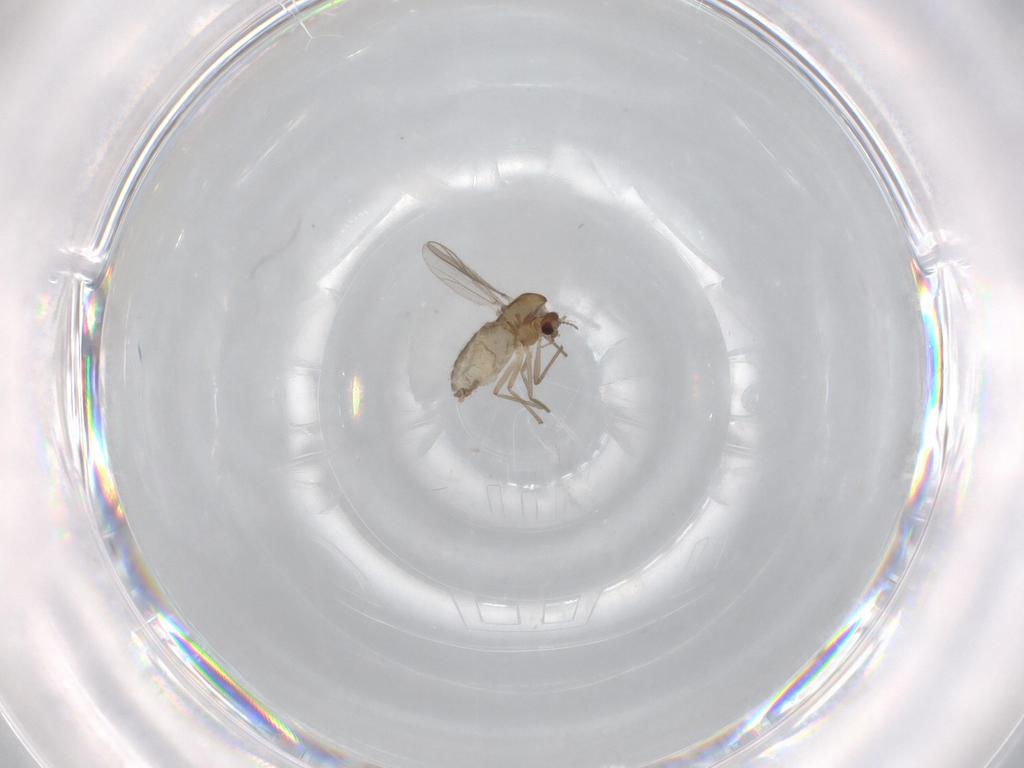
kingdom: Animalia
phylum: Arthropoda
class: Insecta
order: Diptera
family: Chironomidae
